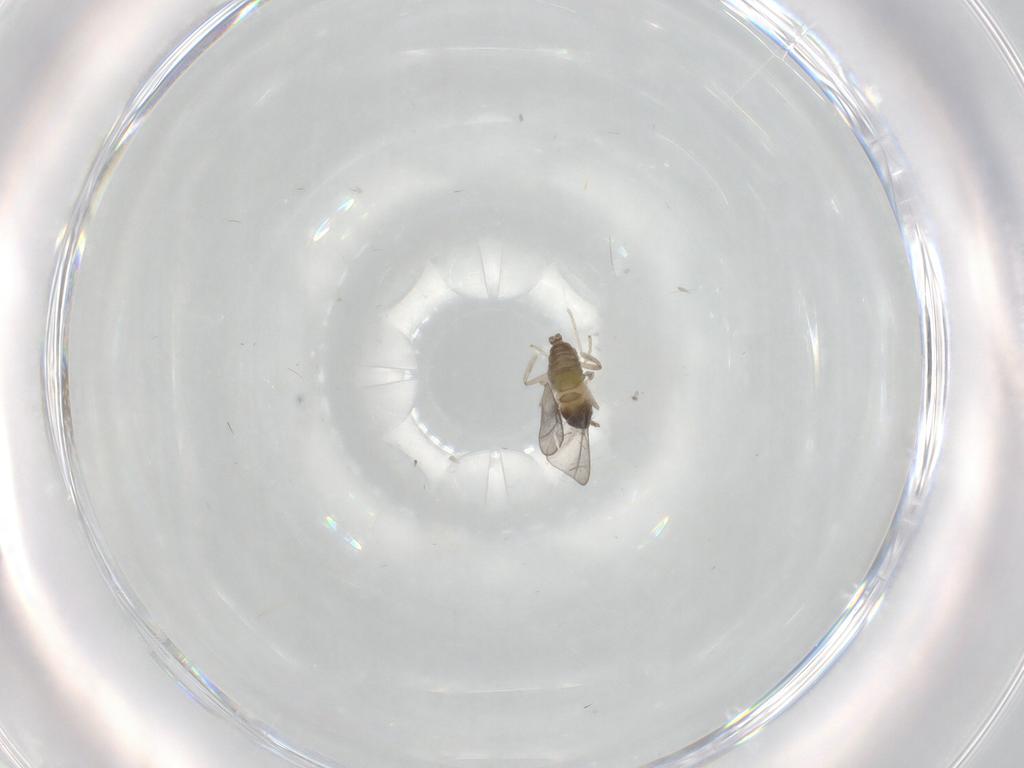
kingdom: Animalia
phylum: Arthropoda
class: Insecta
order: Diptera
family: Cecidomyiidae
